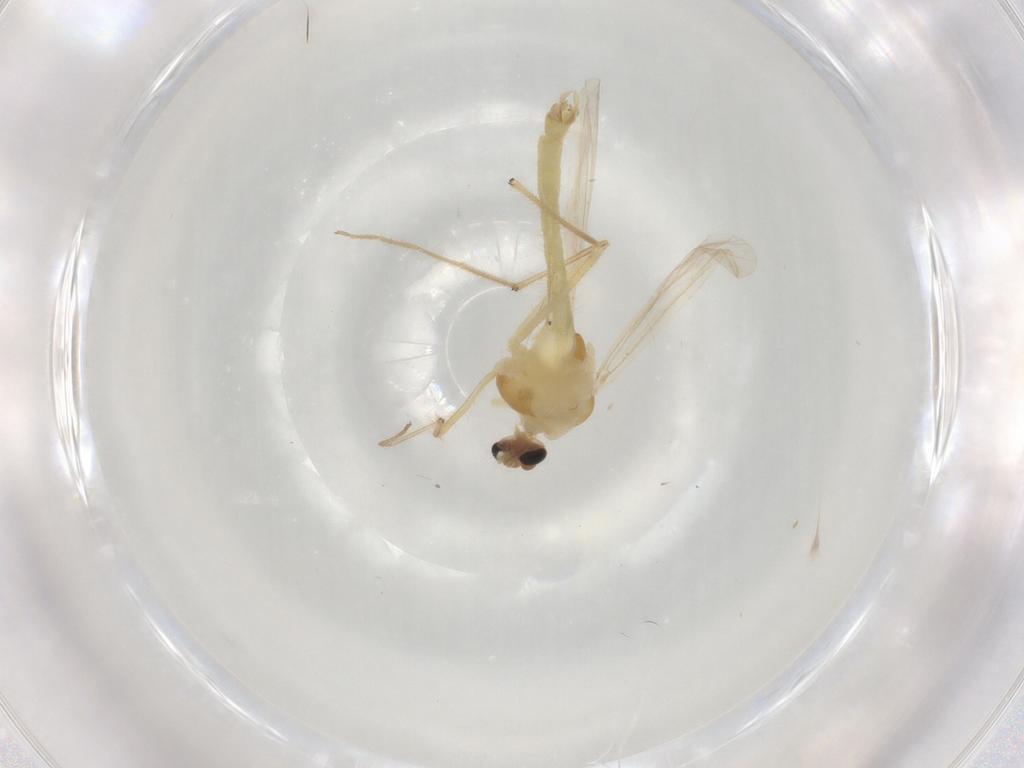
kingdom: Animalia
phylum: Arthropoda
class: Insecta
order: Diptera
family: Chironomidae
